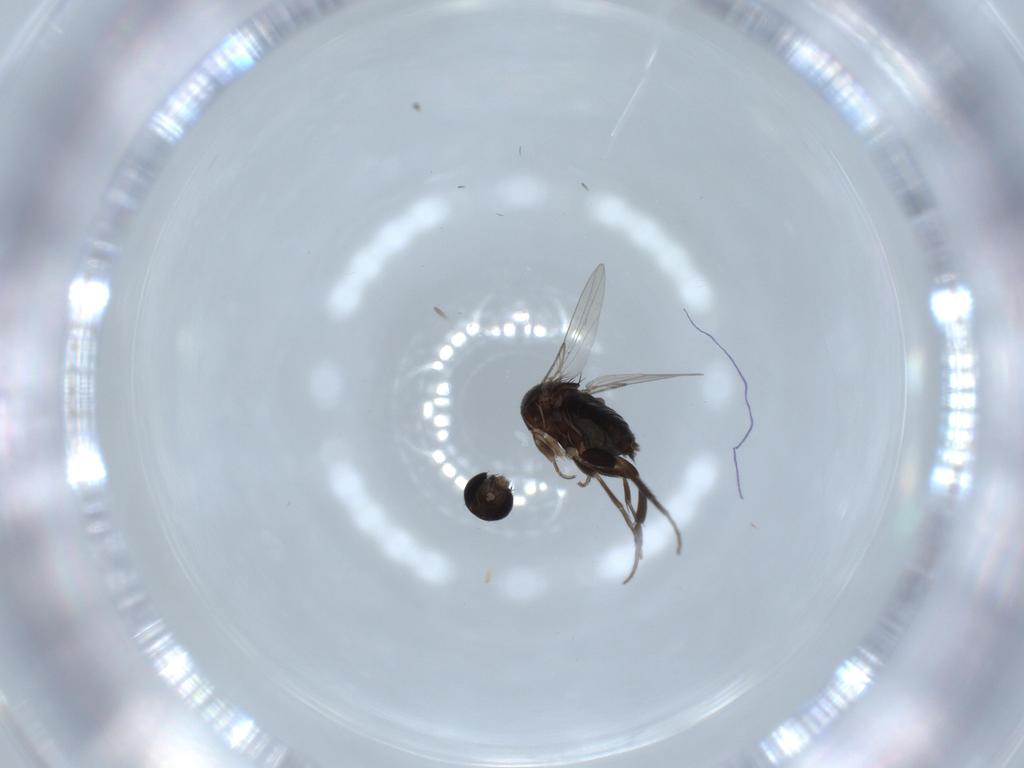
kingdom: Animalia
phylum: Arthropoda
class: Insecta
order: Diptera
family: Phoridae
